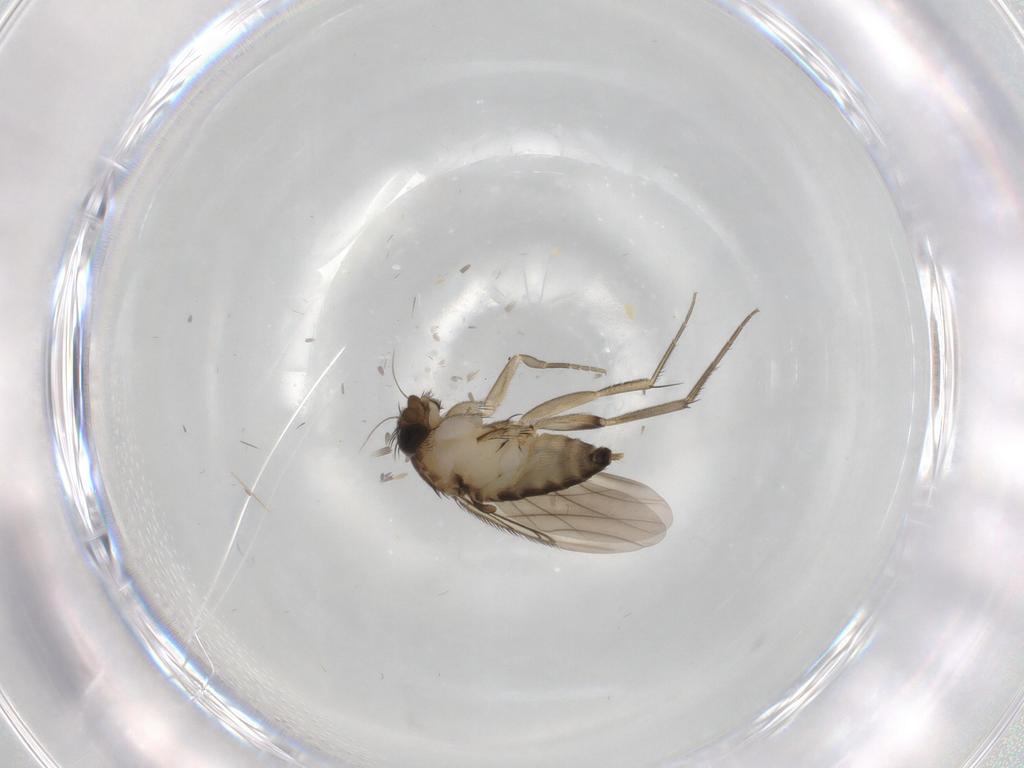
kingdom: Animalia
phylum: Arthropoda
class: Insecta
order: Diptera
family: Phoridae
